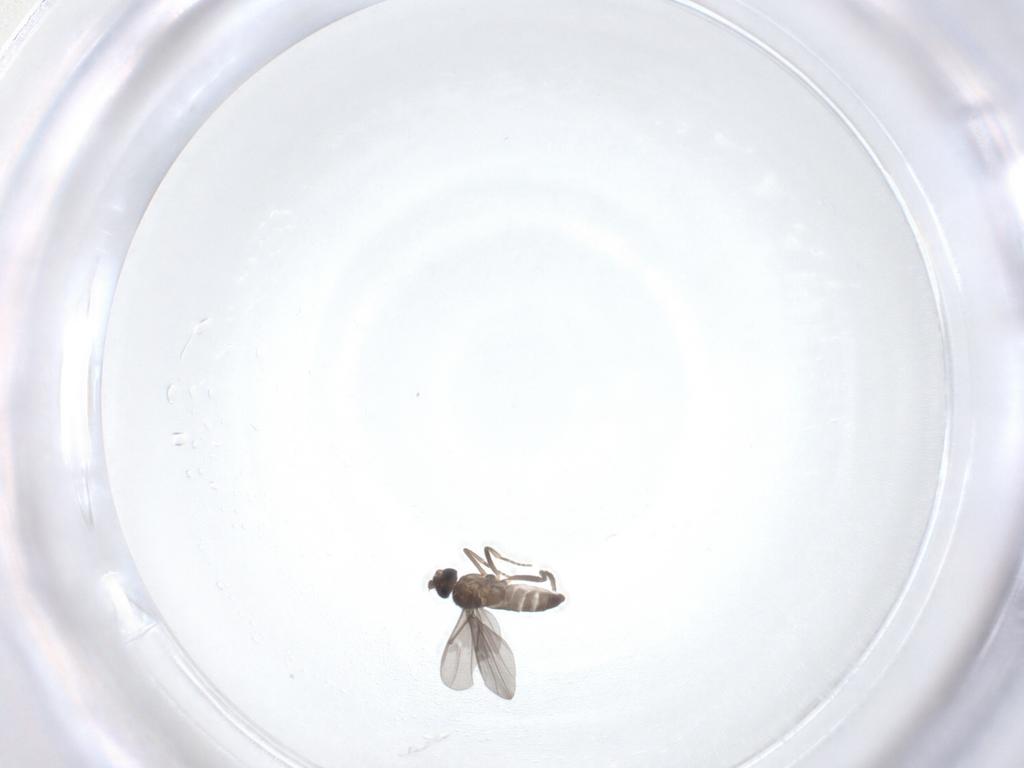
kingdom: Animalia
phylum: Arthropoda
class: Insecta
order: Diptera
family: Phoridae
